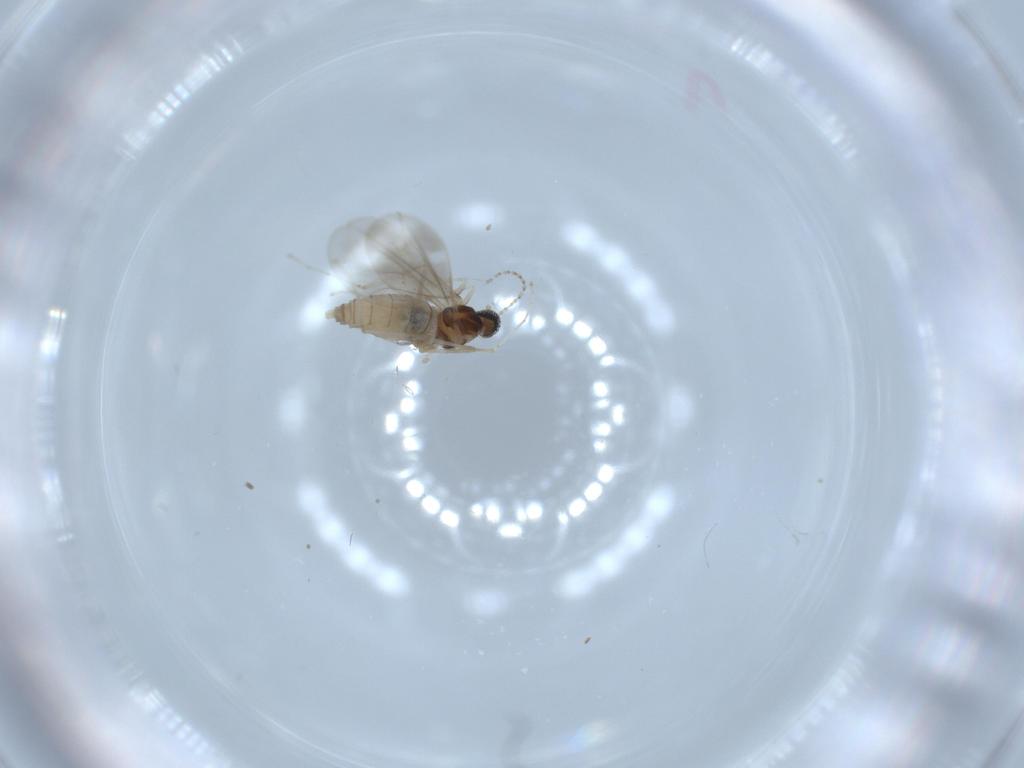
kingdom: Animalia
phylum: Arthropoda
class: Insecta
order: Diptera
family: Cecidomyiidae
